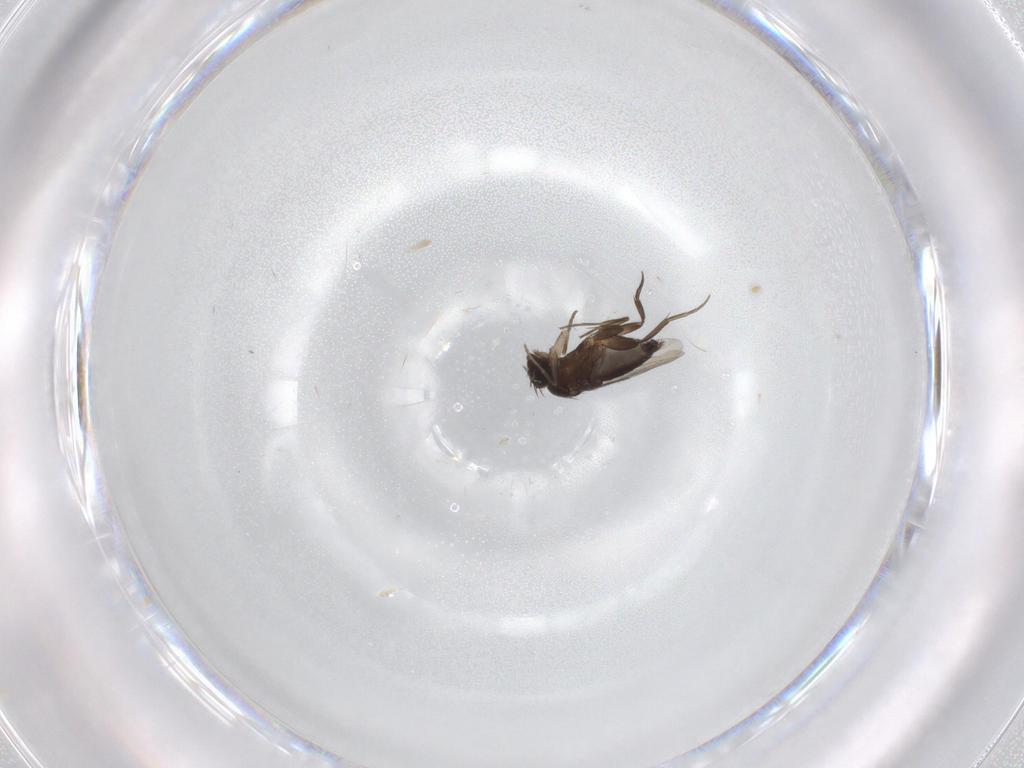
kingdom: Animalia
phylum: Arthropoda
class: Insecta
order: Diptera
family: Phoridae
